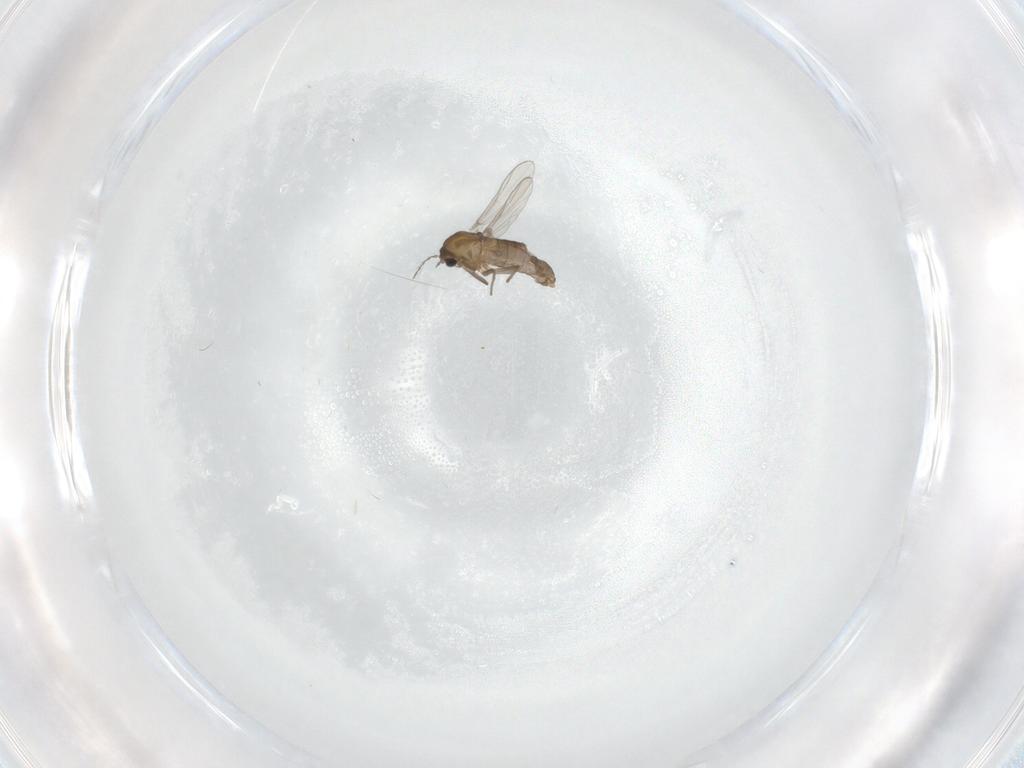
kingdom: Animalia
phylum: Arthropoda
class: Insecta
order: Diptera
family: Chironomidae
